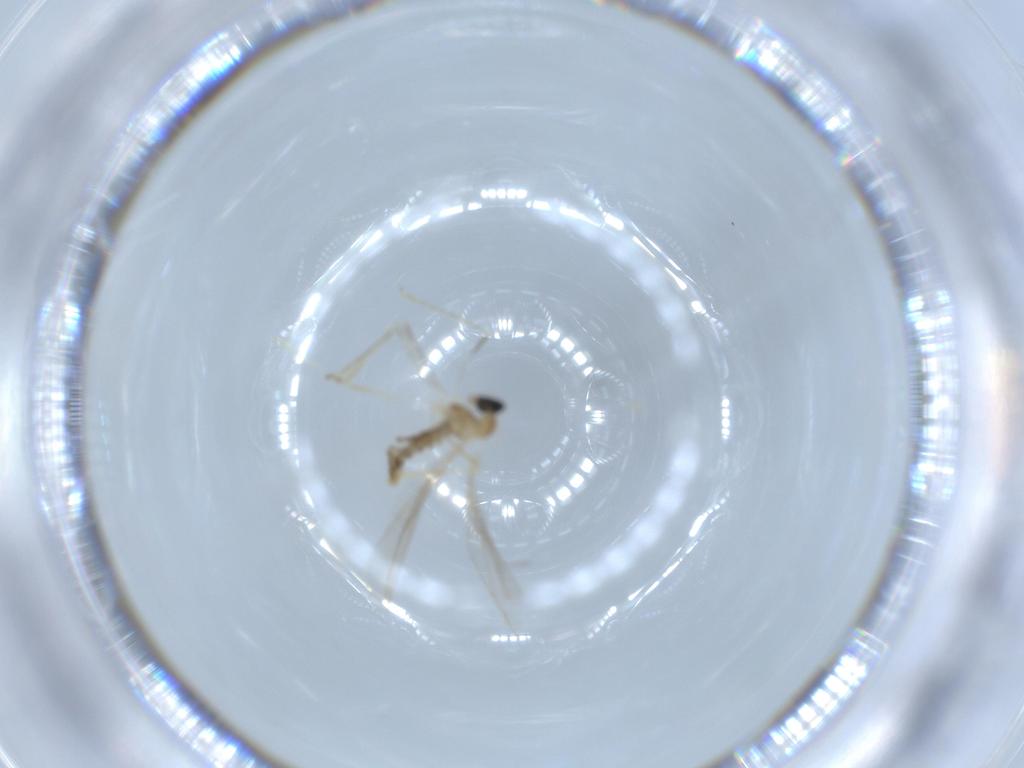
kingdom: Animalia
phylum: Arthropoda
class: Insecta
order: Diptera
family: Cecidomyiidae
